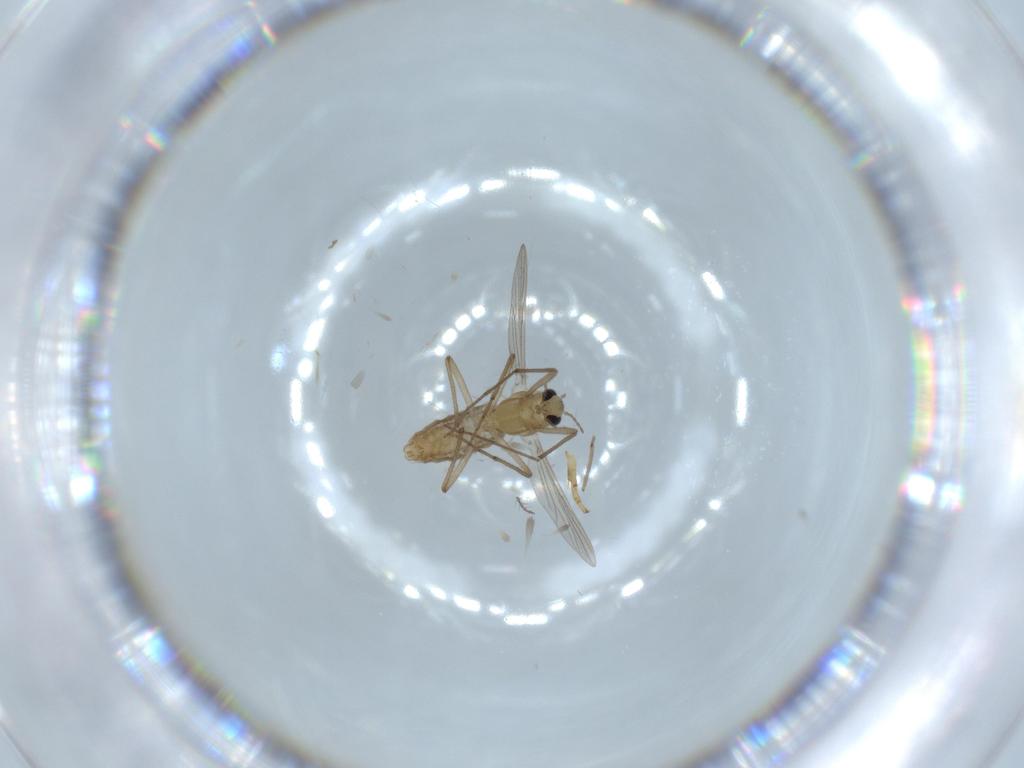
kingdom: Animalia
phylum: Arthropoda
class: Insecta
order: Diptera
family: Chironomidae
